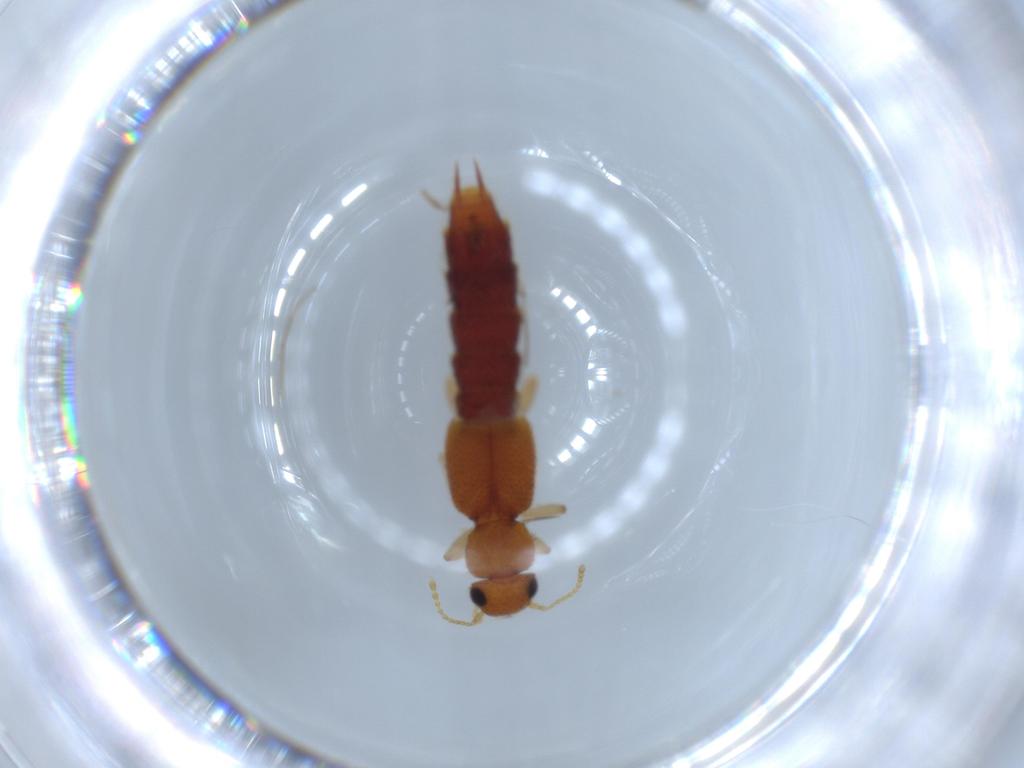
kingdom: Animalia
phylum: Arthropoda
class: Insecta
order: Coleoptera
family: Staphylinidae
